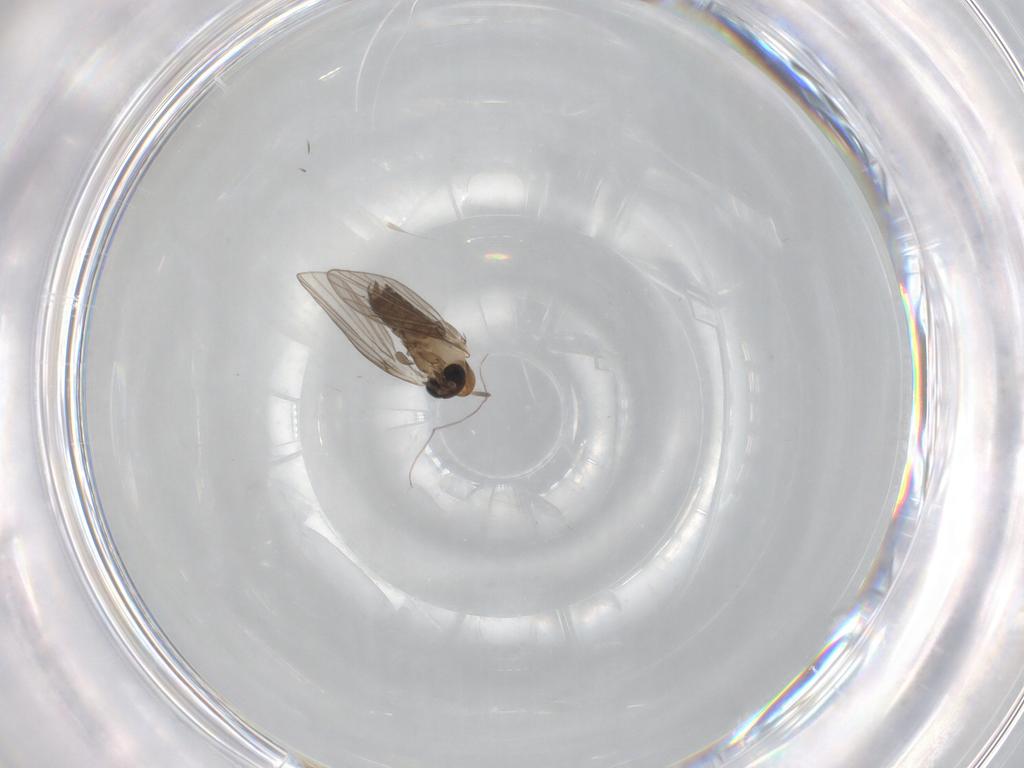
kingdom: Animalia
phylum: Arthropoda
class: Insecta
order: Diptera
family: Psychodidae
